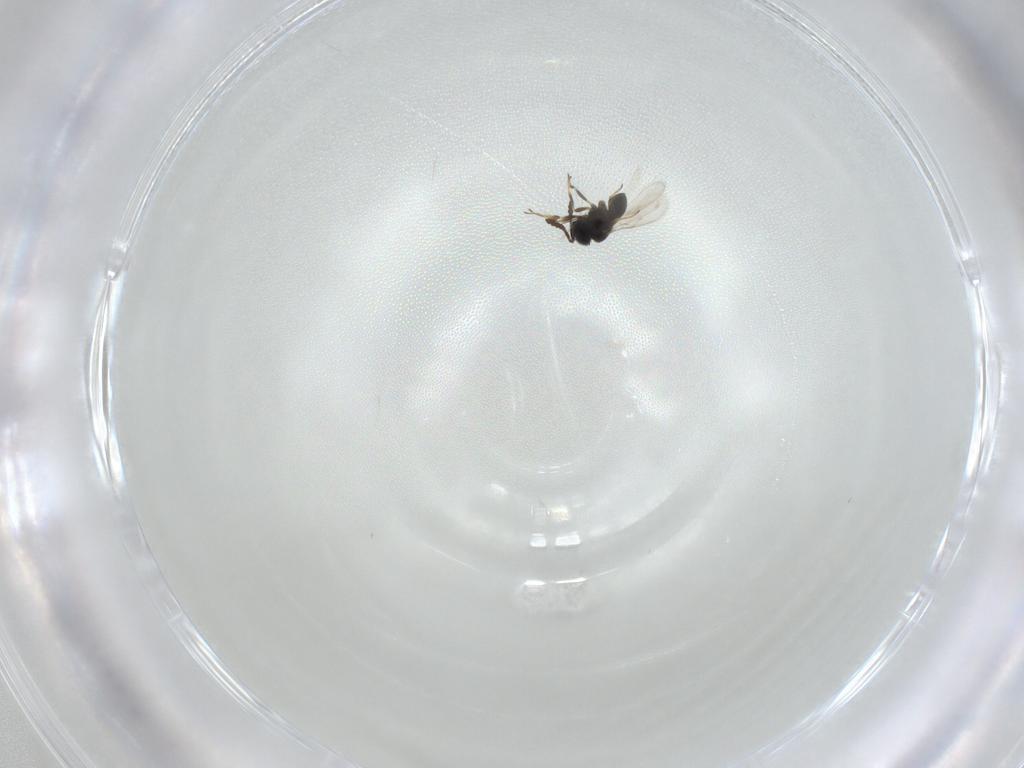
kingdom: Animalia
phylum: Arthropoda
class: Insecta
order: Hymenoptera
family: Scelionidae
